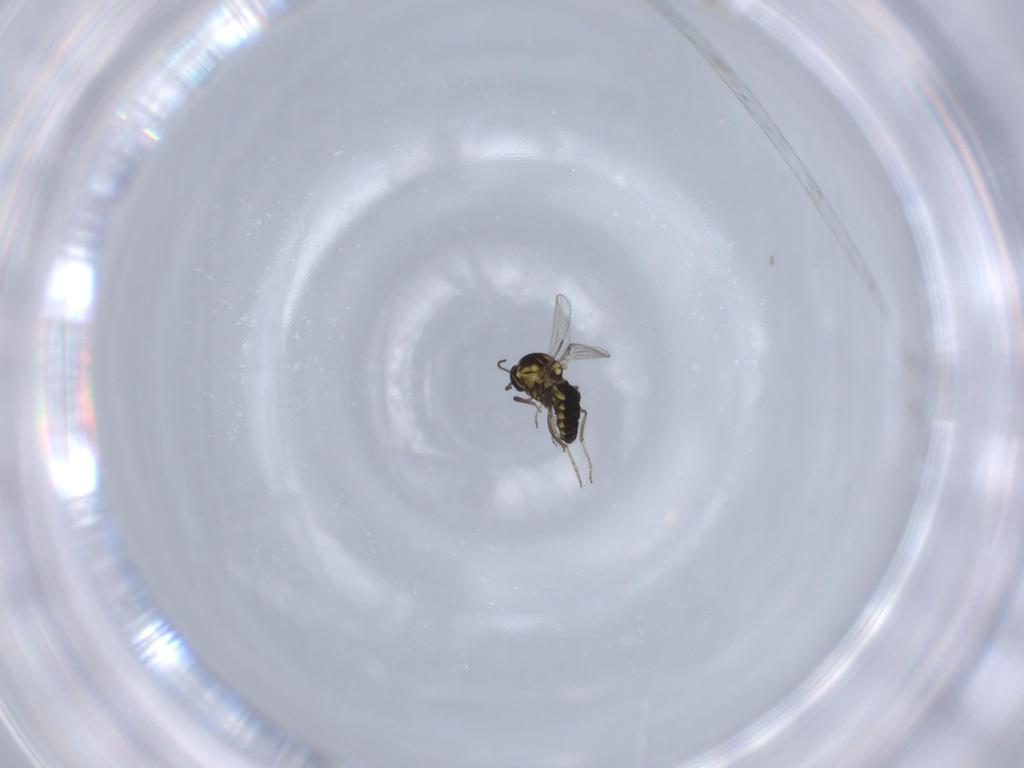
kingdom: Animalia
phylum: Arthropoda
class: Insecta
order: Diptera
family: Ceratopogonidae
